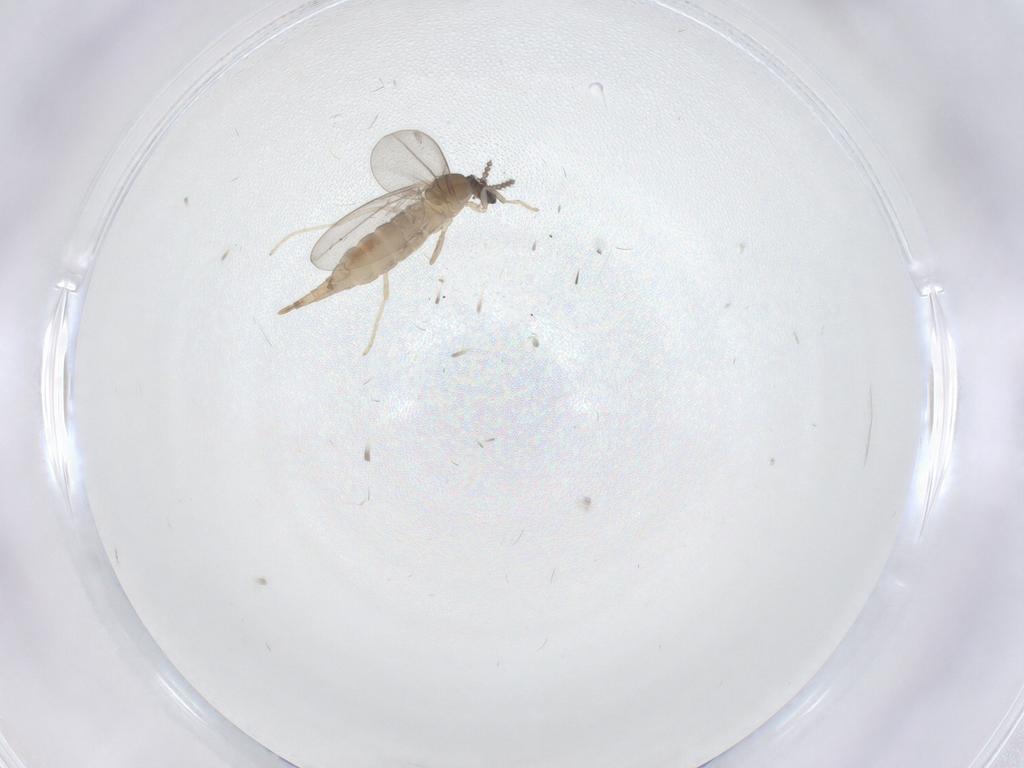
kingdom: Animalia
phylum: Arthropoda
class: Insecta
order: Diptera
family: Cecidomyiidae
